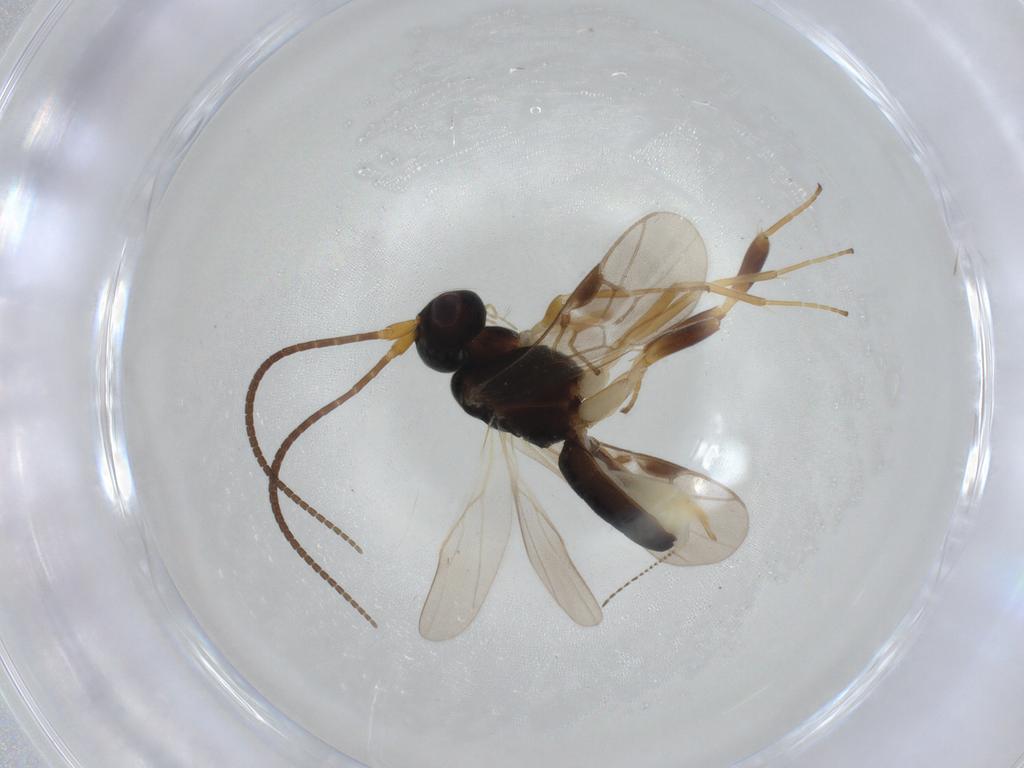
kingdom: Animalia
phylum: Arthropoda
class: Insecta
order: Hymenoptera
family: Braconidae
